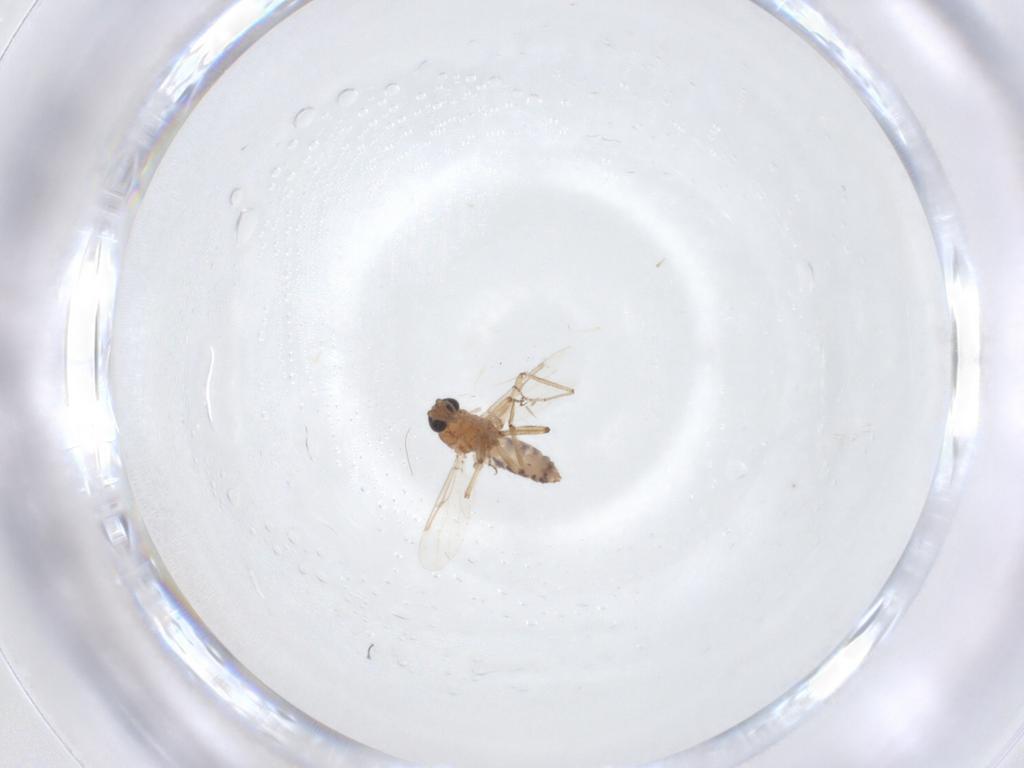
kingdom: Animalia
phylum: Arthropoda
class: Insecta
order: Diptera
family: Ceratopogonidae
